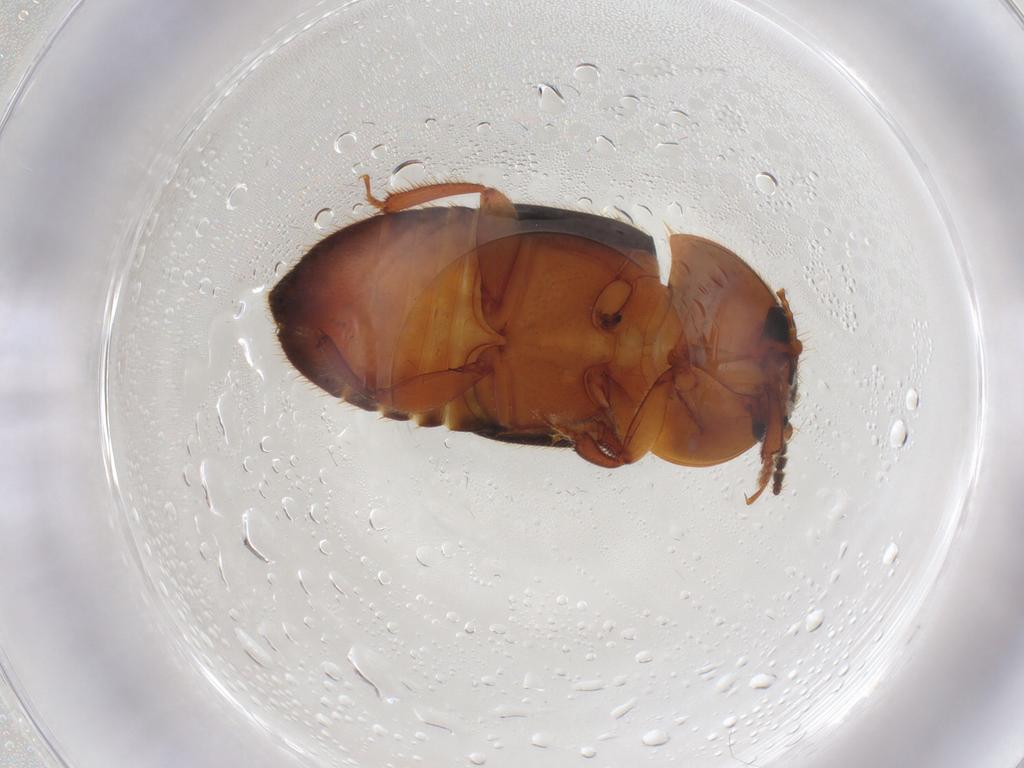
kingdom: Animalia
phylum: Arthropoda
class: Insecta
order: Coleoptera
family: Nitidulidae
